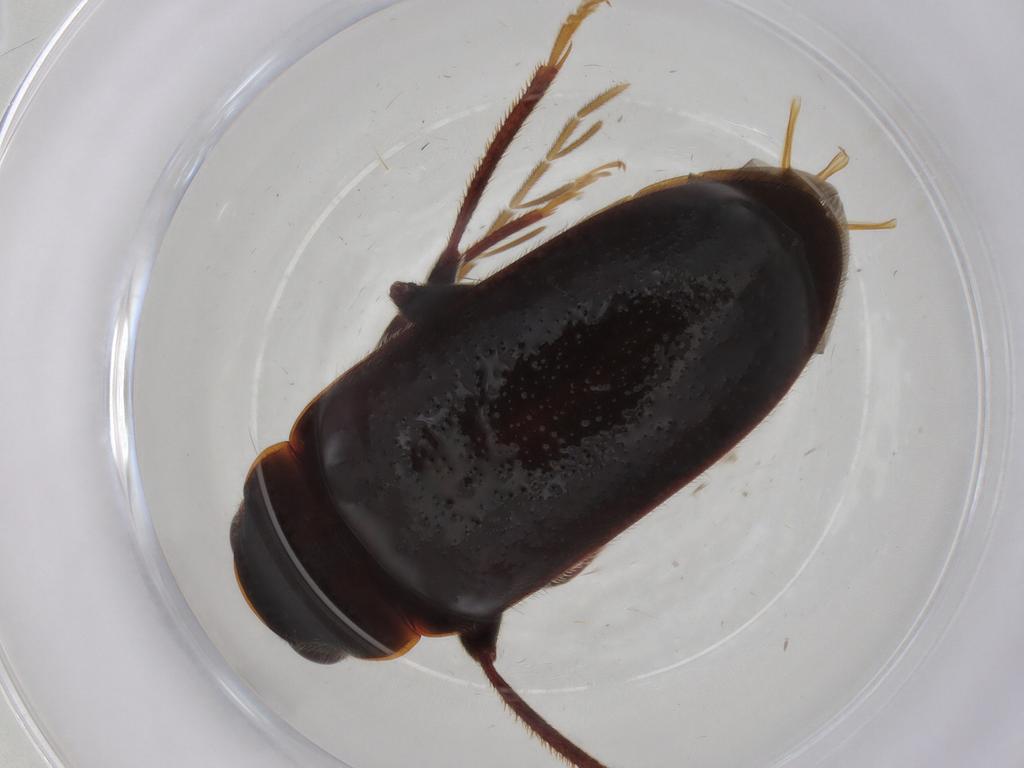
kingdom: Animalia
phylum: Arthropoda
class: Insecta
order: Coleoptera
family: Ptilodactylidae
